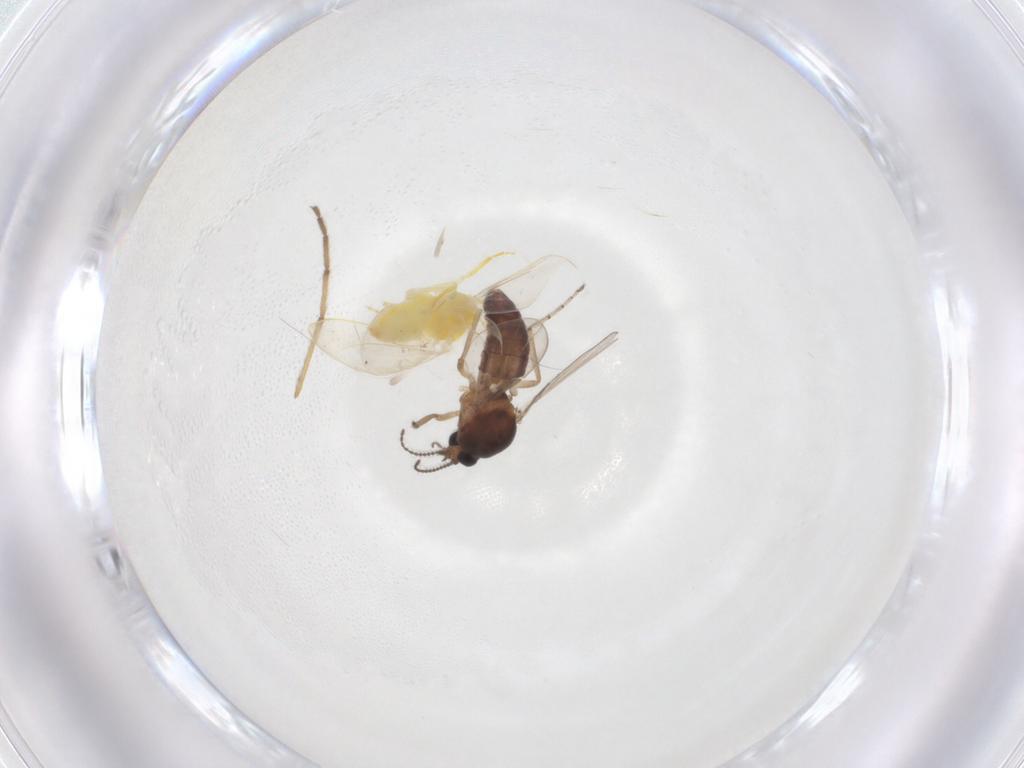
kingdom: Animalia
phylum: Arthropoda
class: Insecta
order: Hemiptera
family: Aleyrodidae
